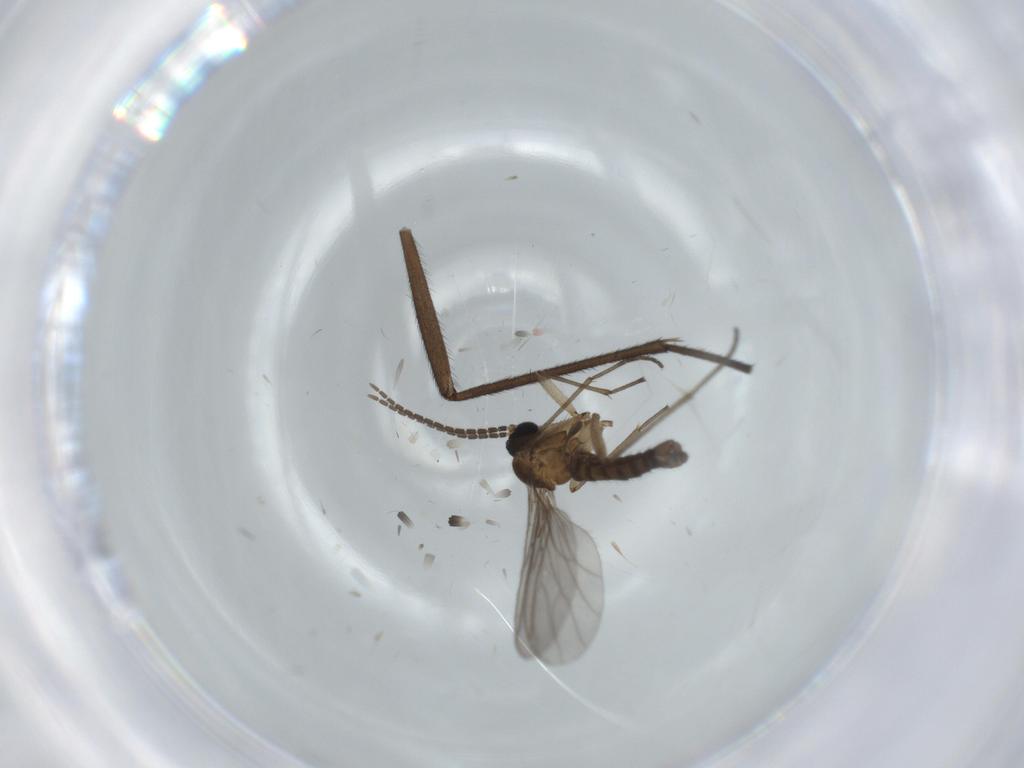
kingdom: Animalia
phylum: Arthropoda
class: Insecta
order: Diptera
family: Sciaridae
